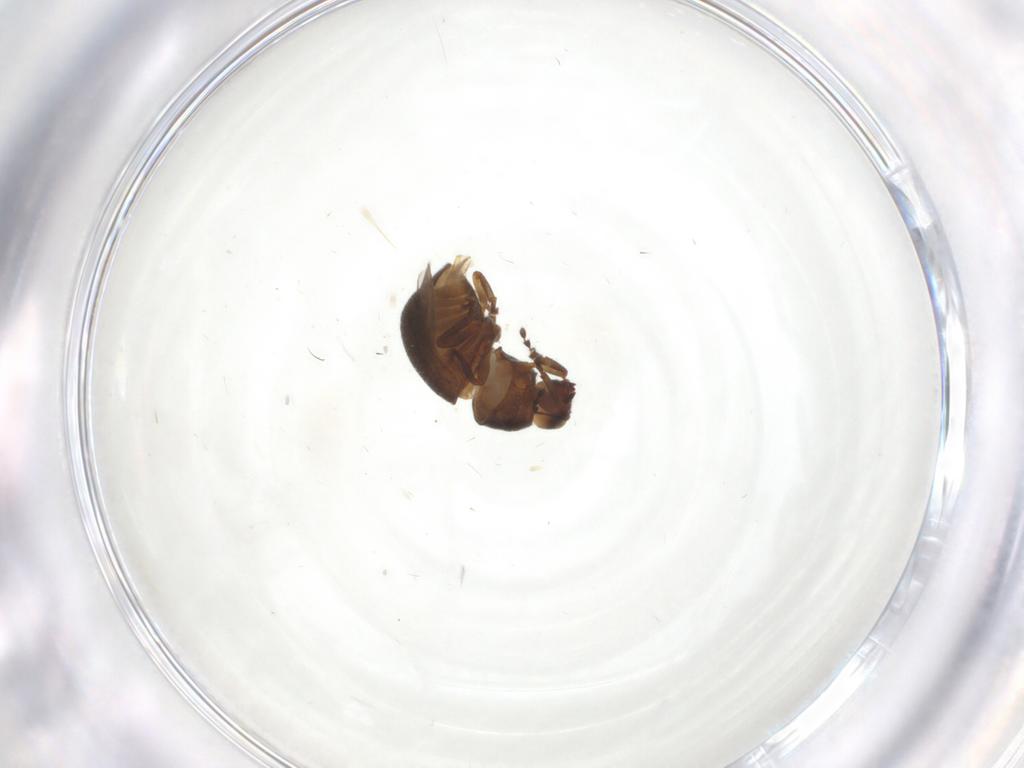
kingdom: Animalia
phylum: Arthropoda
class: Insecta
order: Coleoptera
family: Anthribidae
